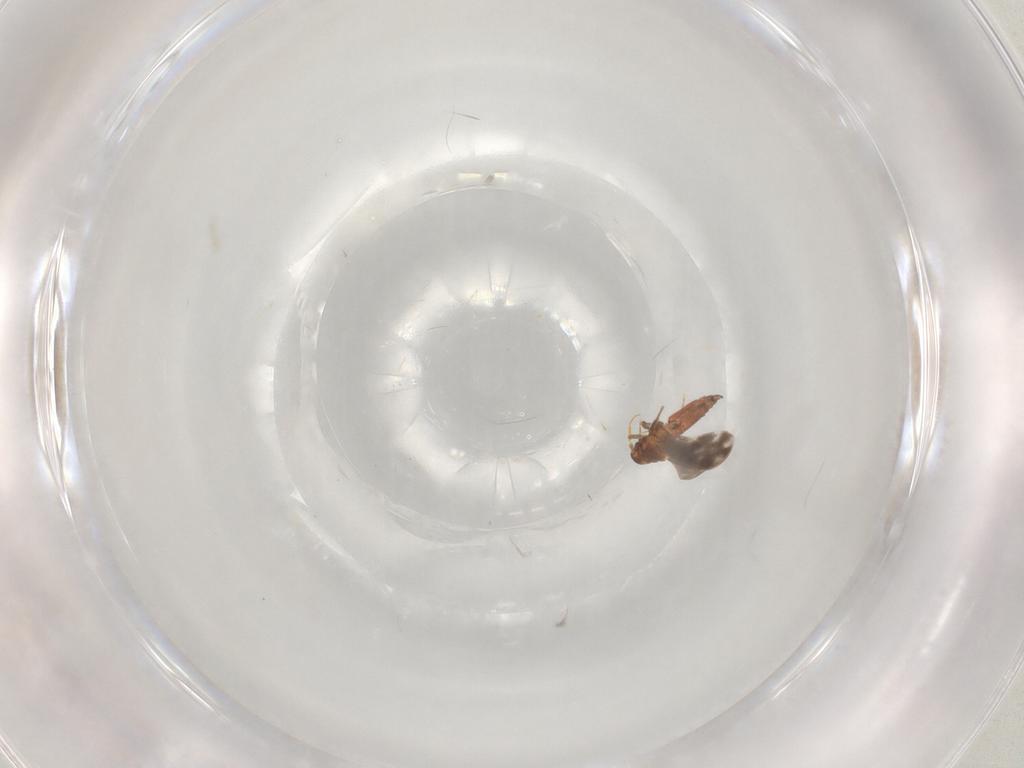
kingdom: Animalia
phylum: Arthropoda
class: Insecta
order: Hemiptera
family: Aleyrodidae
